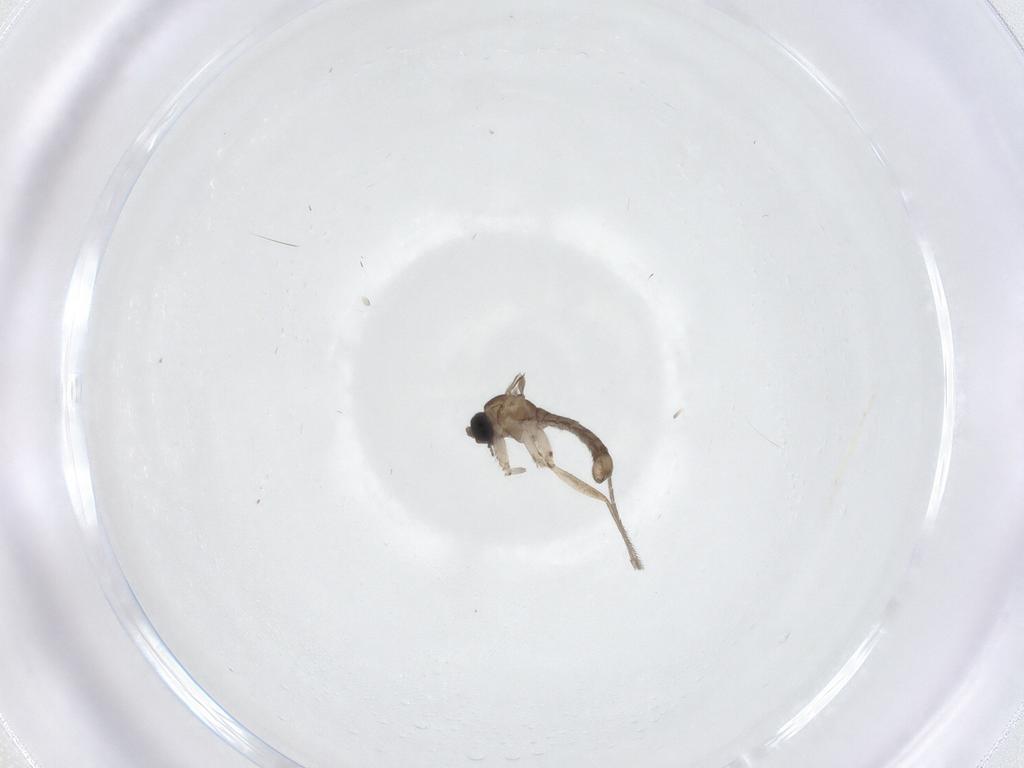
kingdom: Animalia
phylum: Arthropoda
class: Insecta
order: Diptera
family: Sciaridae
